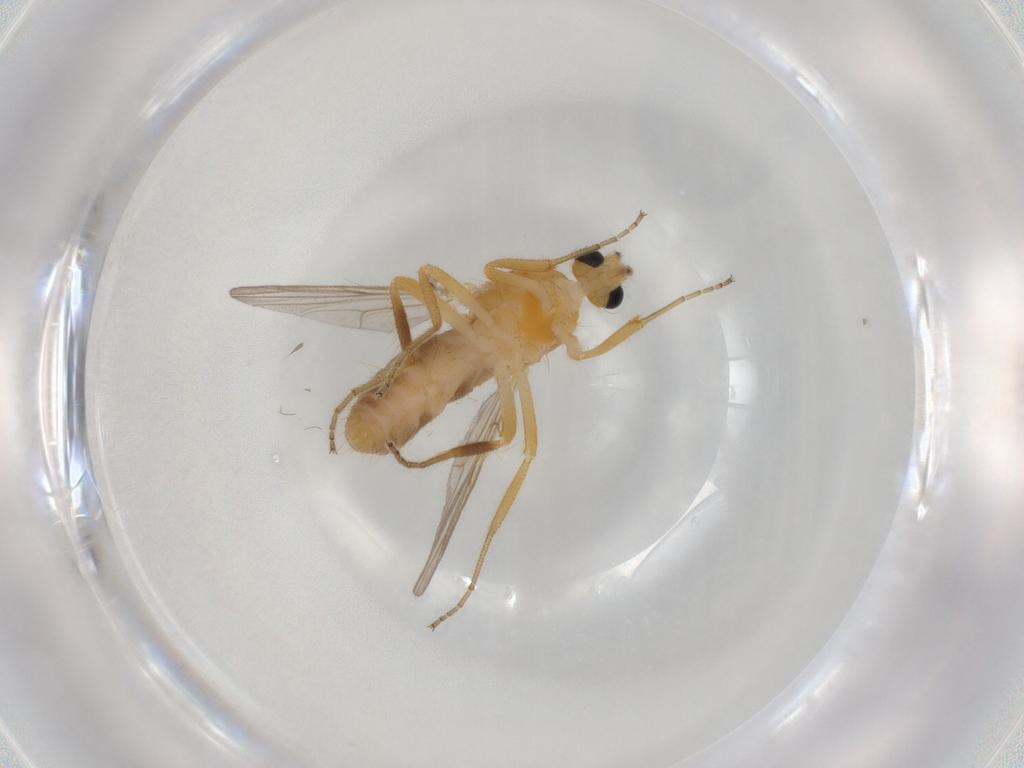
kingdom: Animalia
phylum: Arthropoda
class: Insecta
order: Diptera
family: Ceratopogonidae
